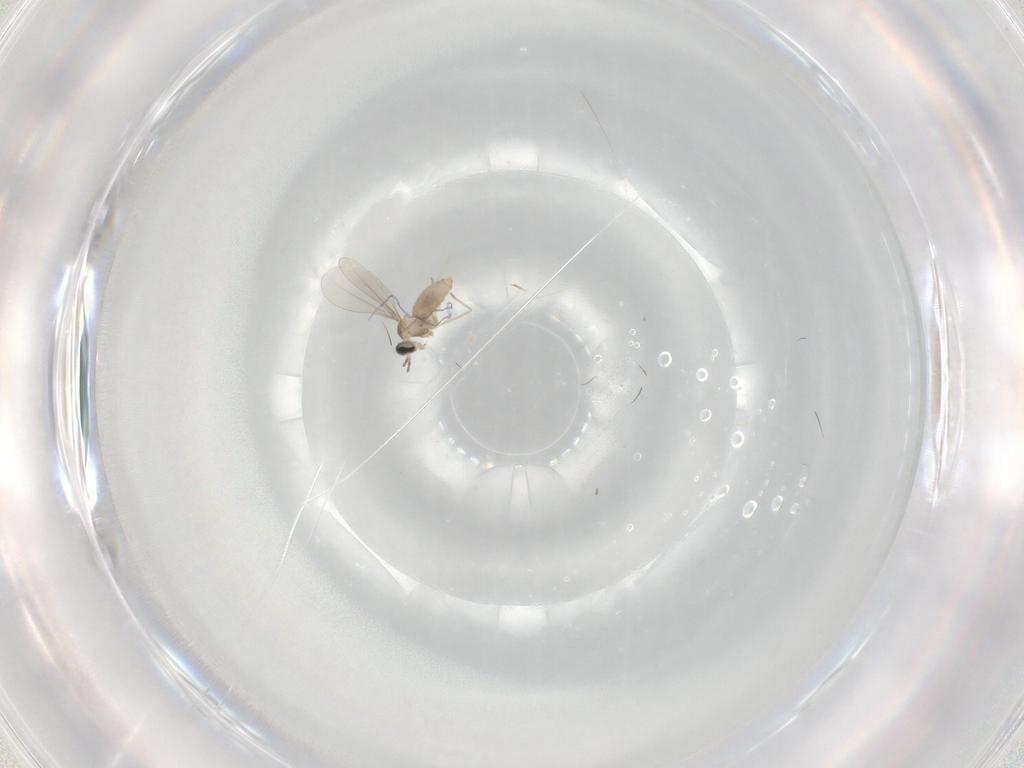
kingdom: Animalia
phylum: Arthropoda
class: Insecta
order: Diptera
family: Cecidomyiidae
